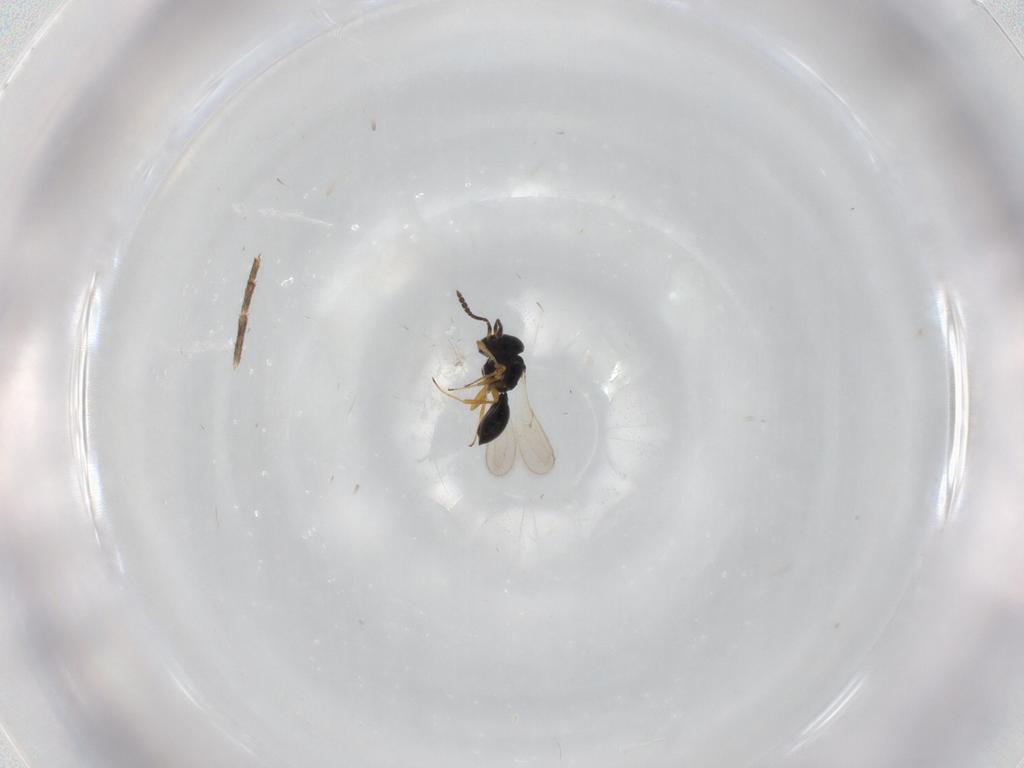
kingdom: Animalia
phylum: Arthropoda
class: Insecta
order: Hymenoptera
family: Scelionidae
